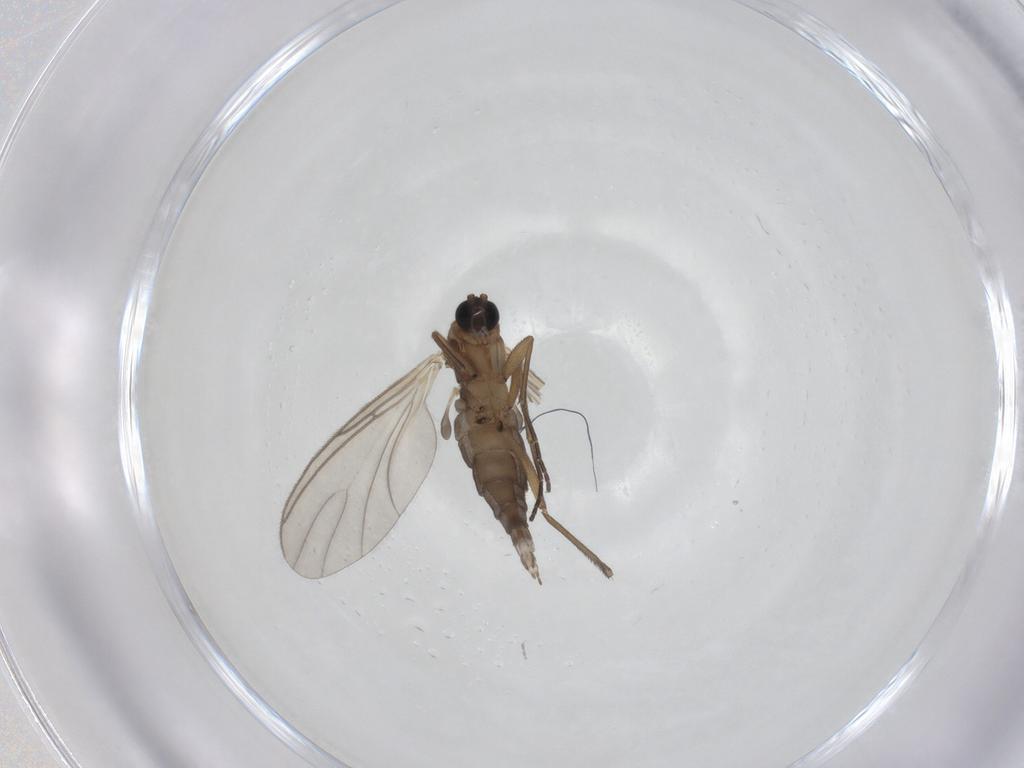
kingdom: Animalia
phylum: Arthropoda
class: Insecta
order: Diptera
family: Sciaridae
